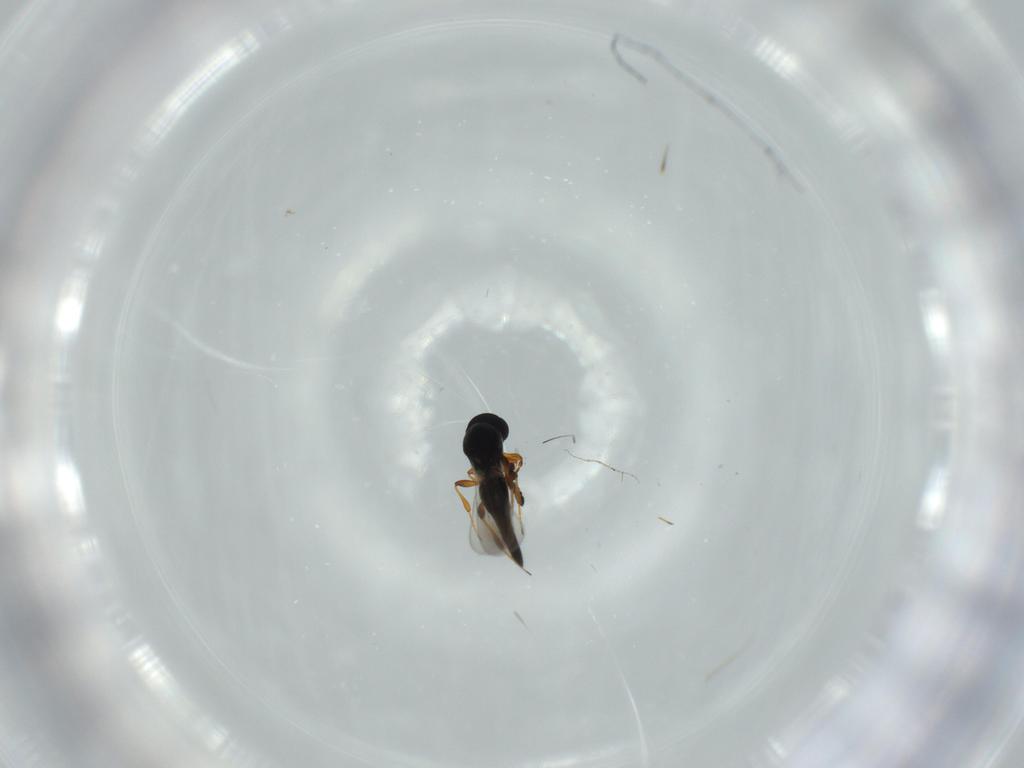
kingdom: Animalia
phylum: Arthropoda
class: Insecta
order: Hymenoptera
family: Platygastridae
